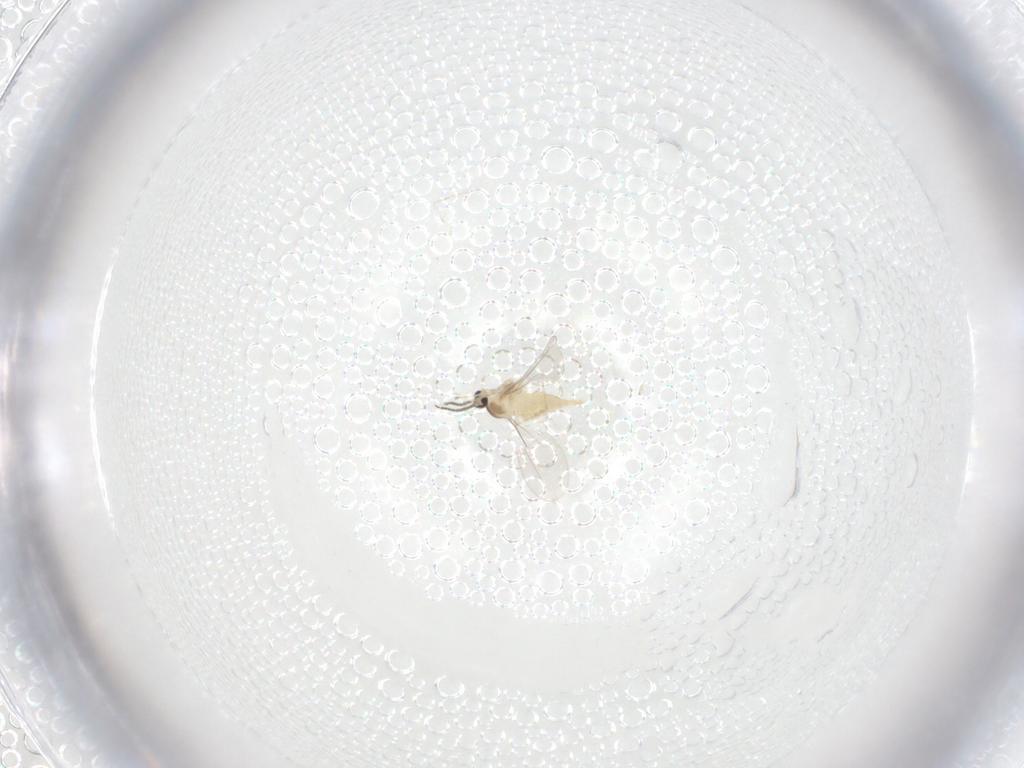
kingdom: Animalia
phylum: Arthropoda
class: Insecta
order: Diptera
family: Cecidomyiidae
